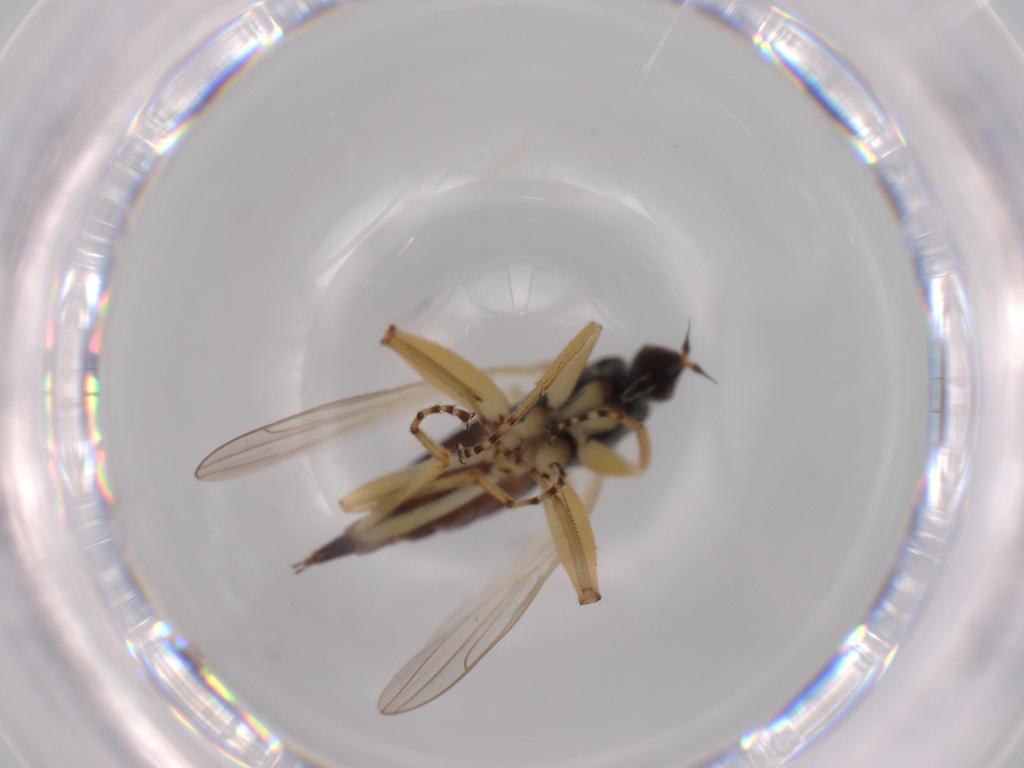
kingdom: Animalia
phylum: Arthropoda
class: Insecta
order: Diptera
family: Hybotidae
